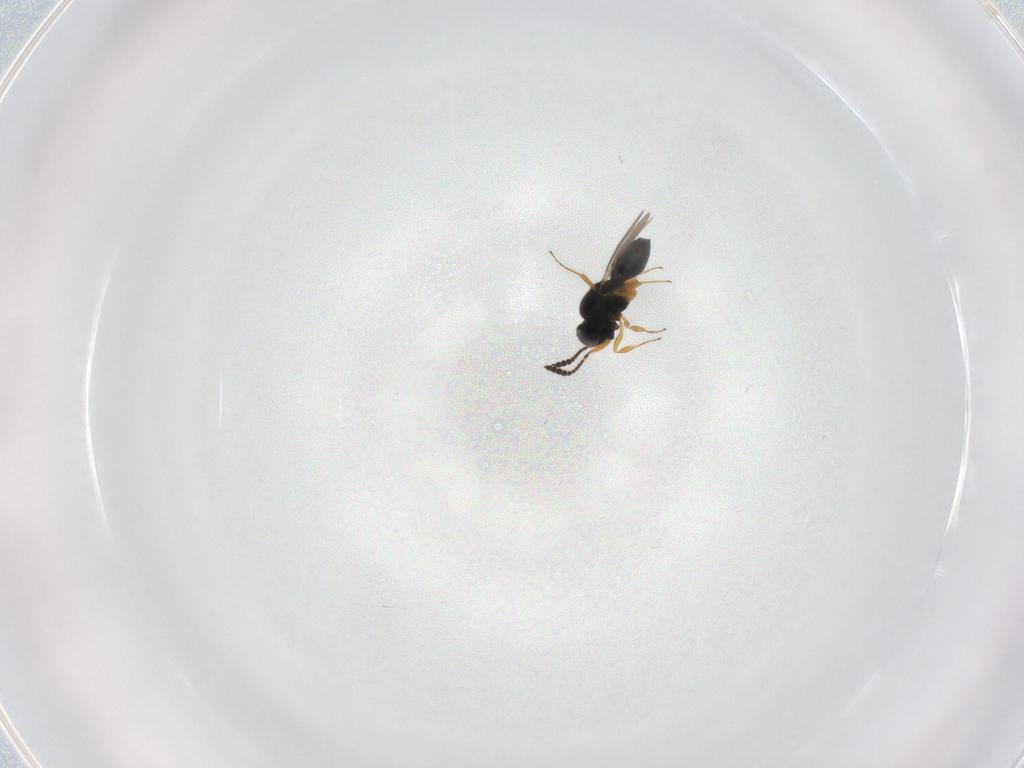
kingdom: Animalia
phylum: Arthropoda
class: Insecta
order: Hymenoptera
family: Scelionidae
